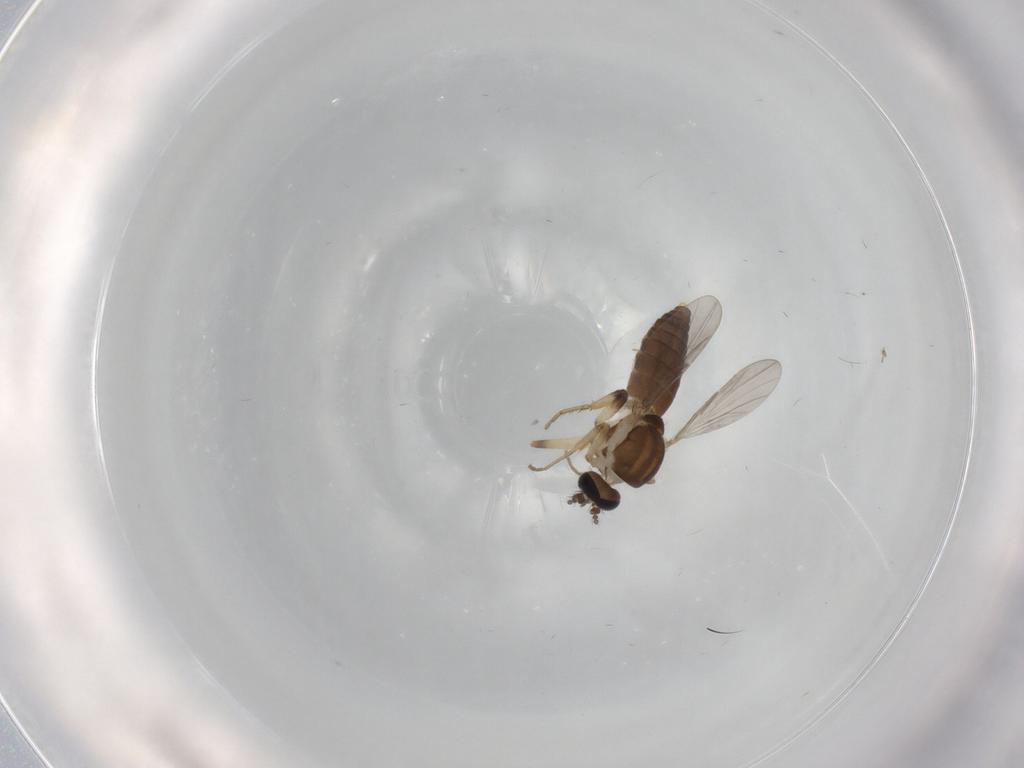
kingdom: Animalia
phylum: Arthropoda
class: Insecta
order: Diptera
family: Ceratopogonidae
